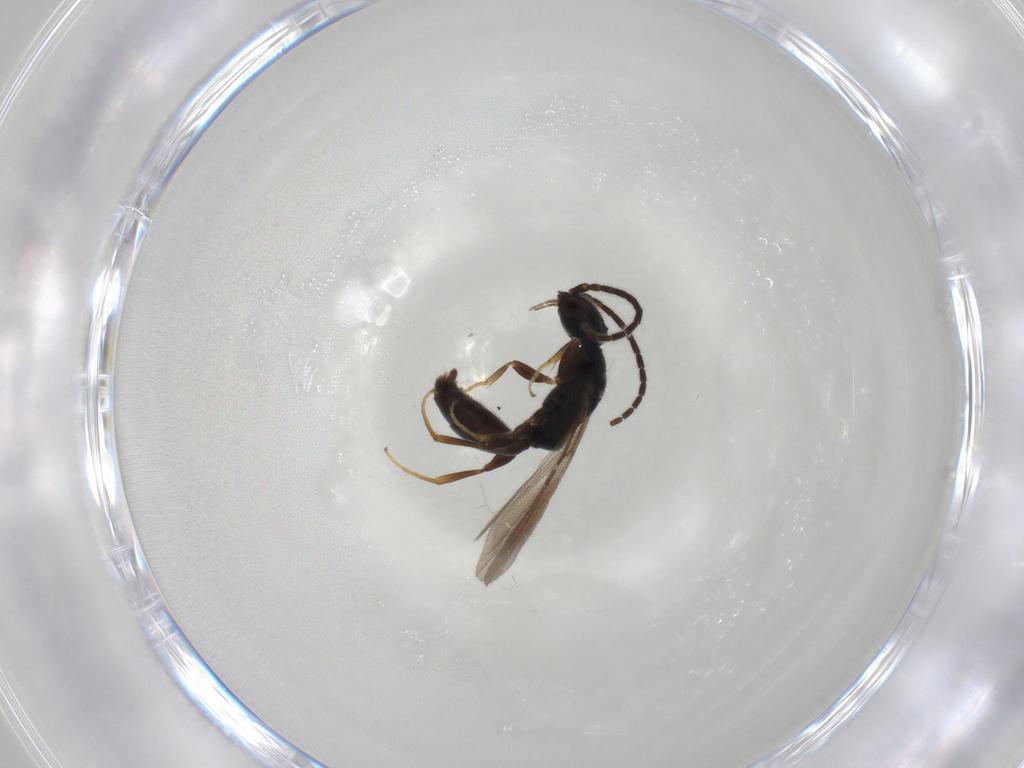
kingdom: Animalia
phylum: Arthropoda
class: Insecta
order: Hymenoptera
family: Bethylidae
